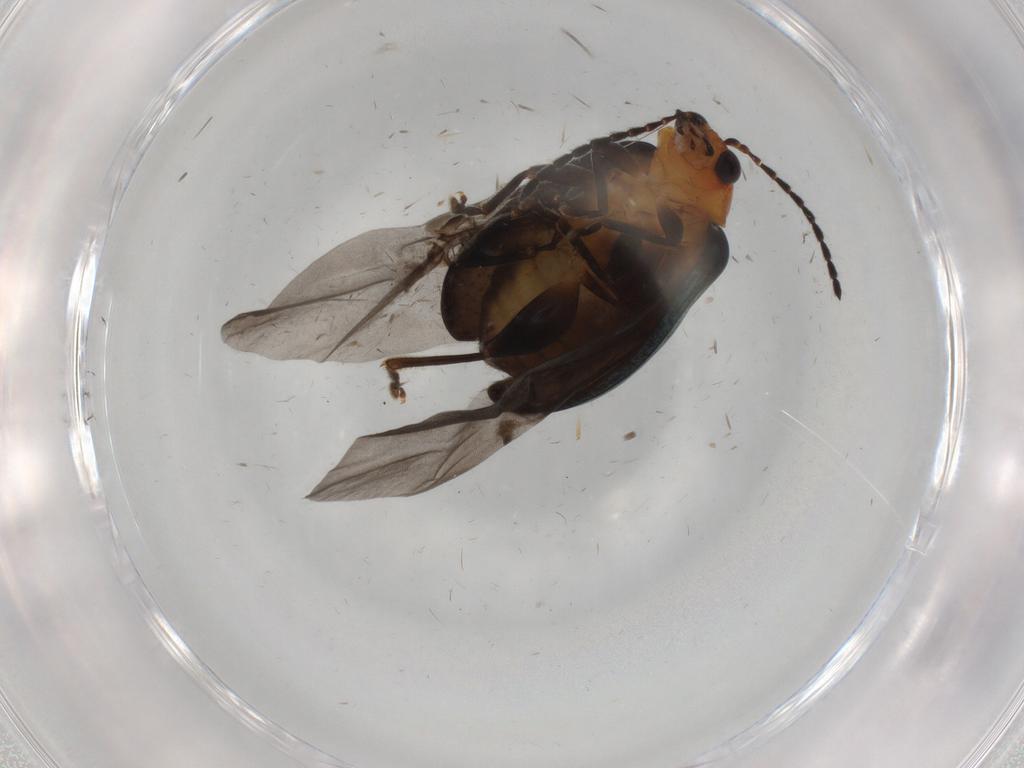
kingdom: Animalia
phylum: Arthropoda
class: Insecta
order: Coleoptera
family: Chrysomelidae
